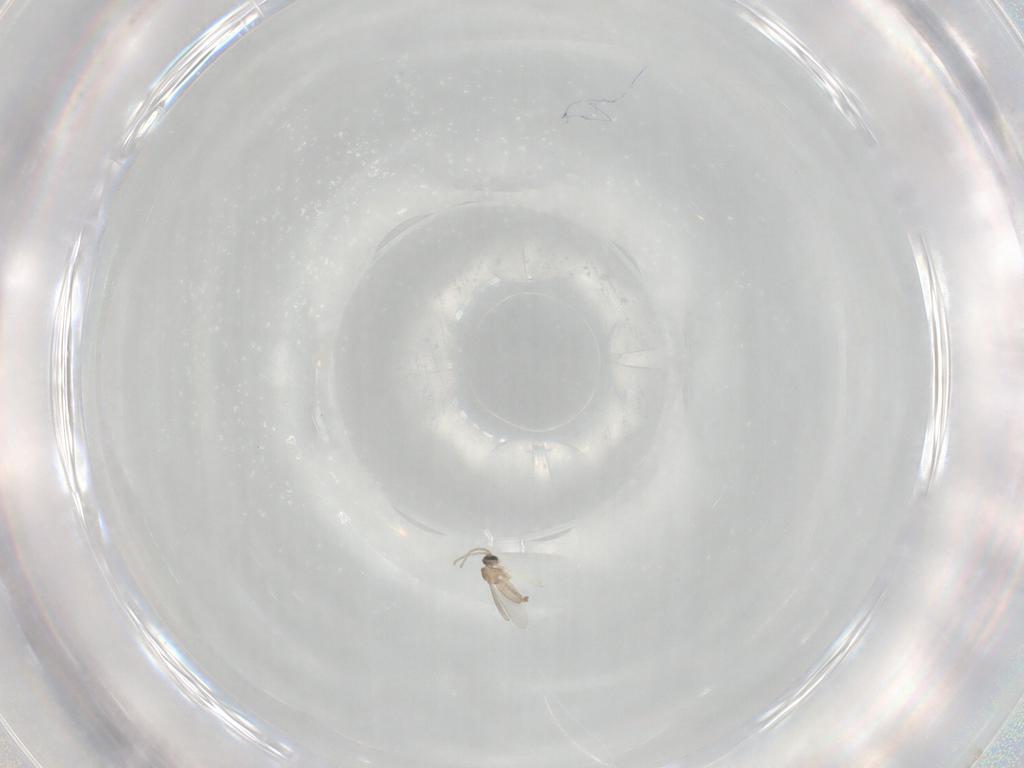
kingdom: Animalia
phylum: Arthropoda
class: Insecta
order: Diptera
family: Cecidomyiidae
